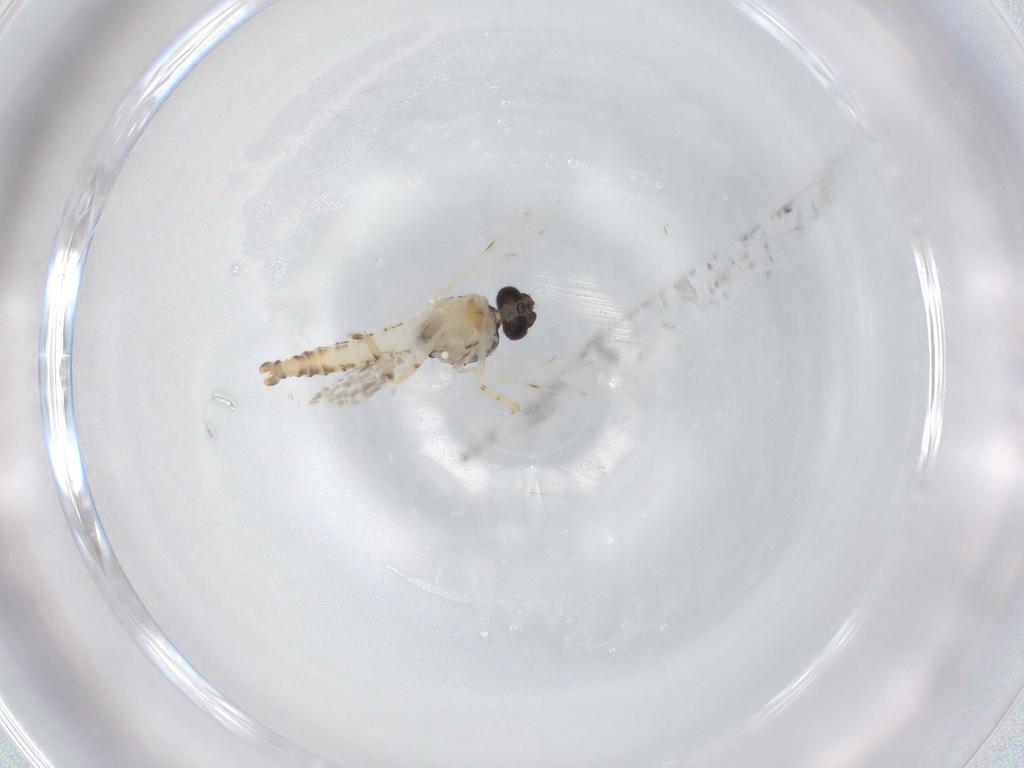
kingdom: Animalia
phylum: Arthropoda
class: Insecta
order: Diptera
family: Ceratopogonidae
